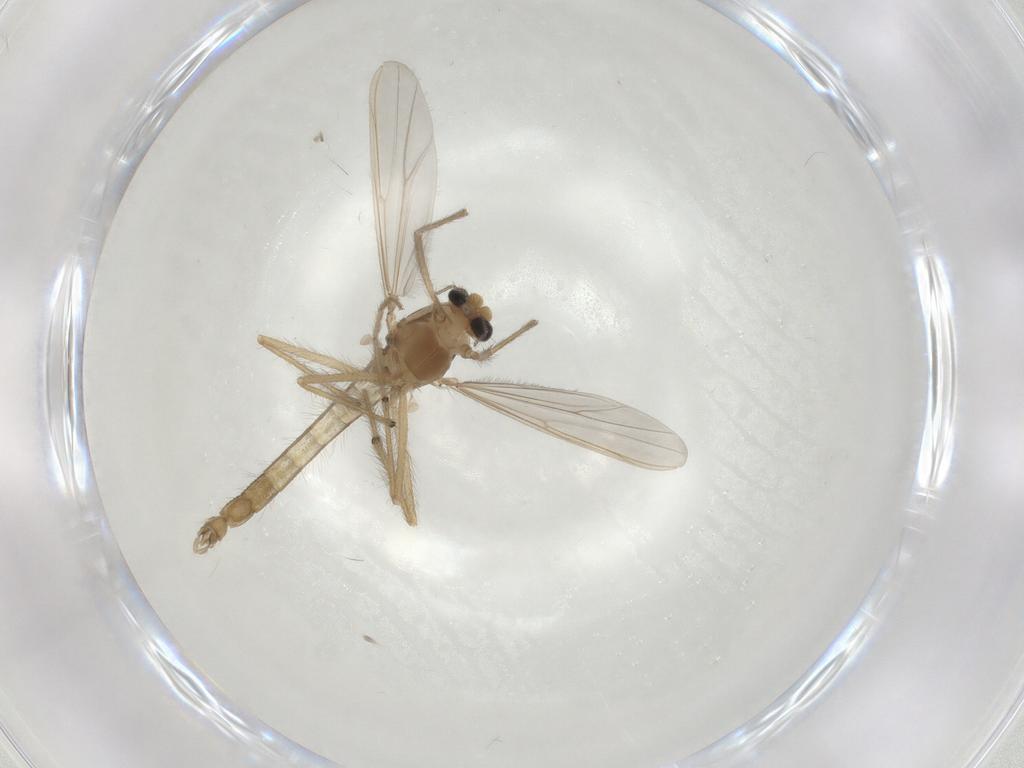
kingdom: Animalia
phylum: Arthropoda
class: Insecta
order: Diptera
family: Chironomidae
